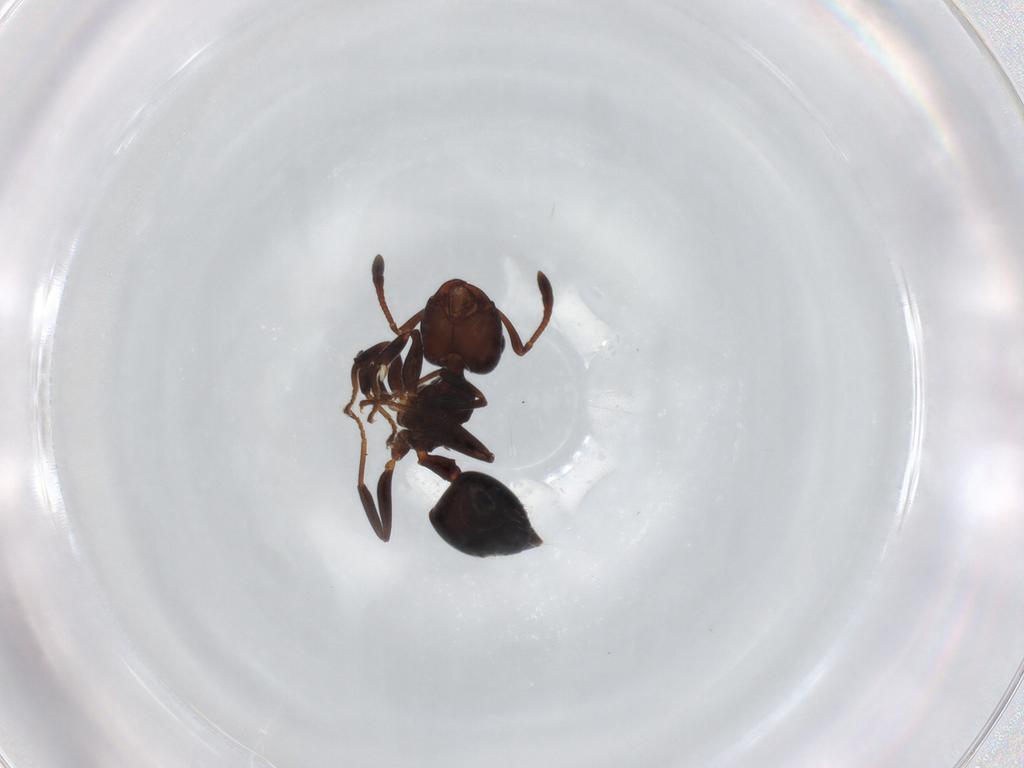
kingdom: Animalia
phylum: Arthropoda
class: Insecta
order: Hymenoptera
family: Formicidae
